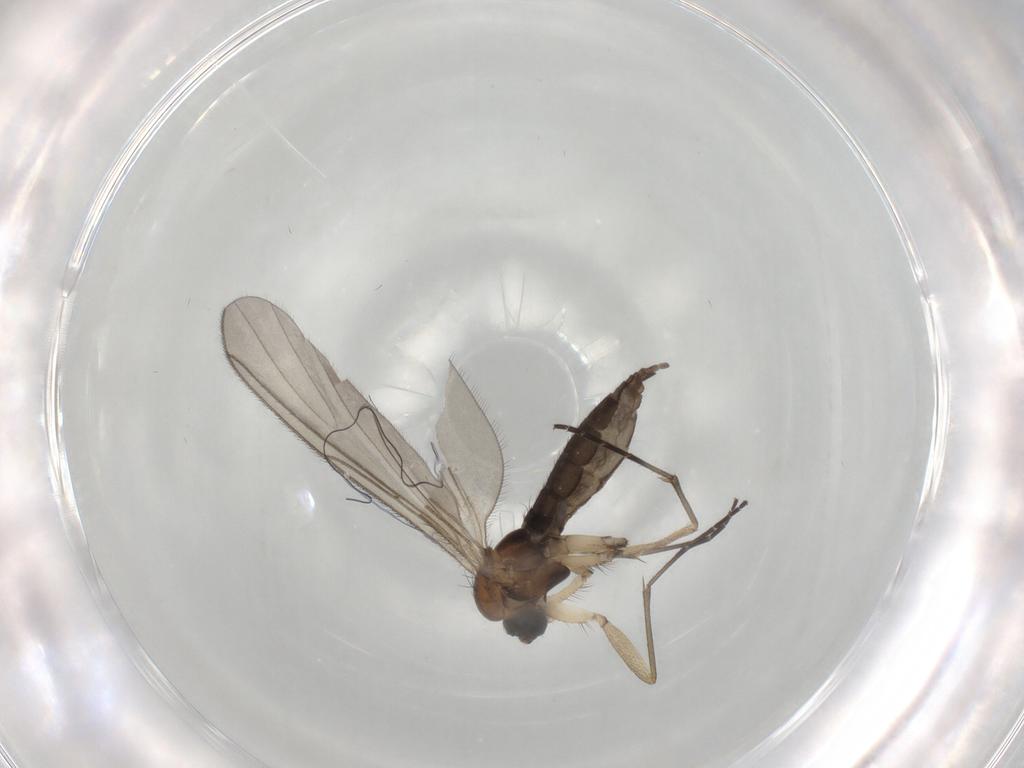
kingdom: Animalia
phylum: Arthropoda
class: Insecta
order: Diptera
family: Sciaridae
